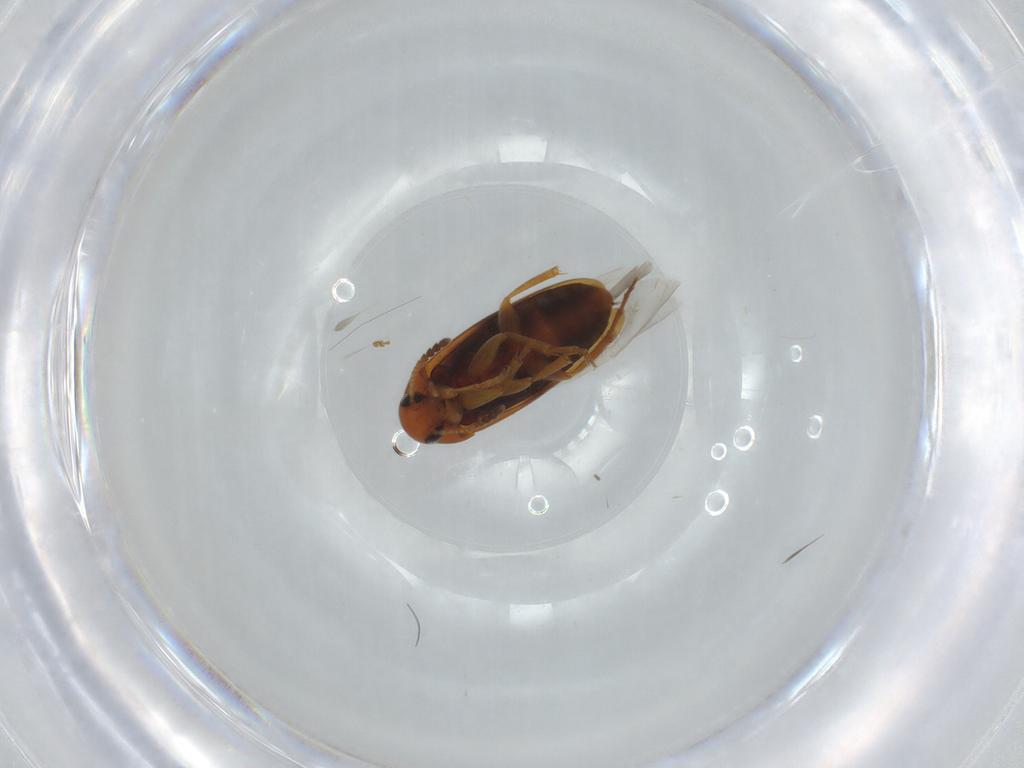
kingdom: Animalia
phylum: Arthropoda
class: Insecta
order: Coleoptera
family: Scraptiidae
